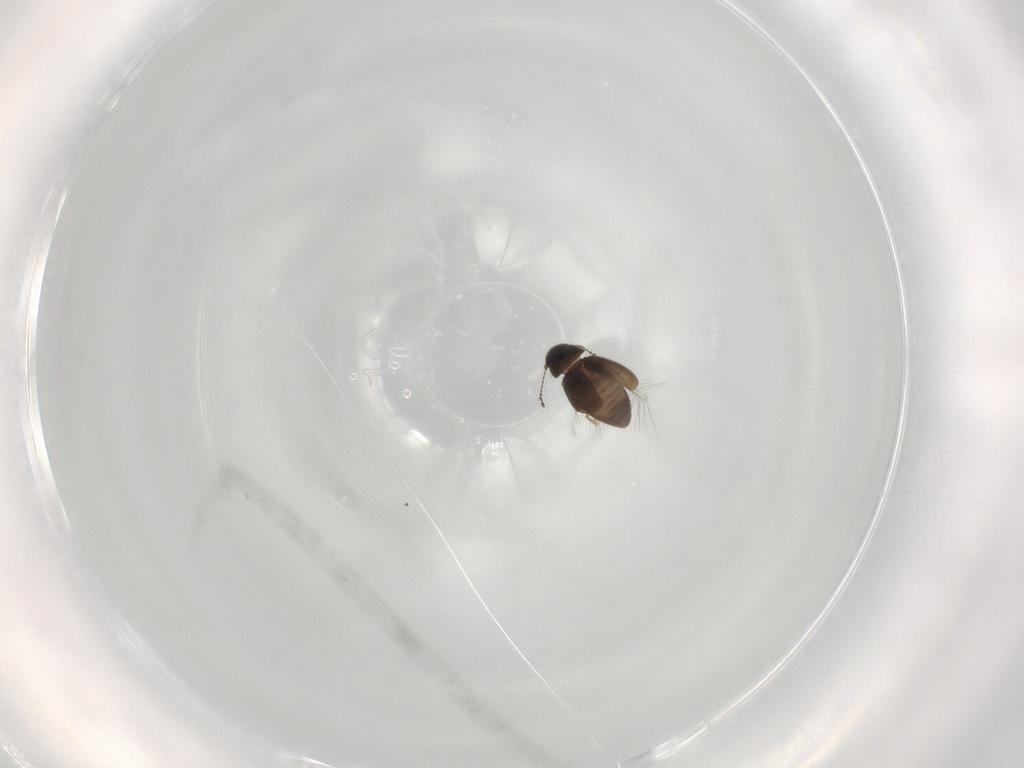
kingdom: Animalia
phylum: Arthropoda
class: Insecta
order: Coleoptera
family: Ptiliidae
